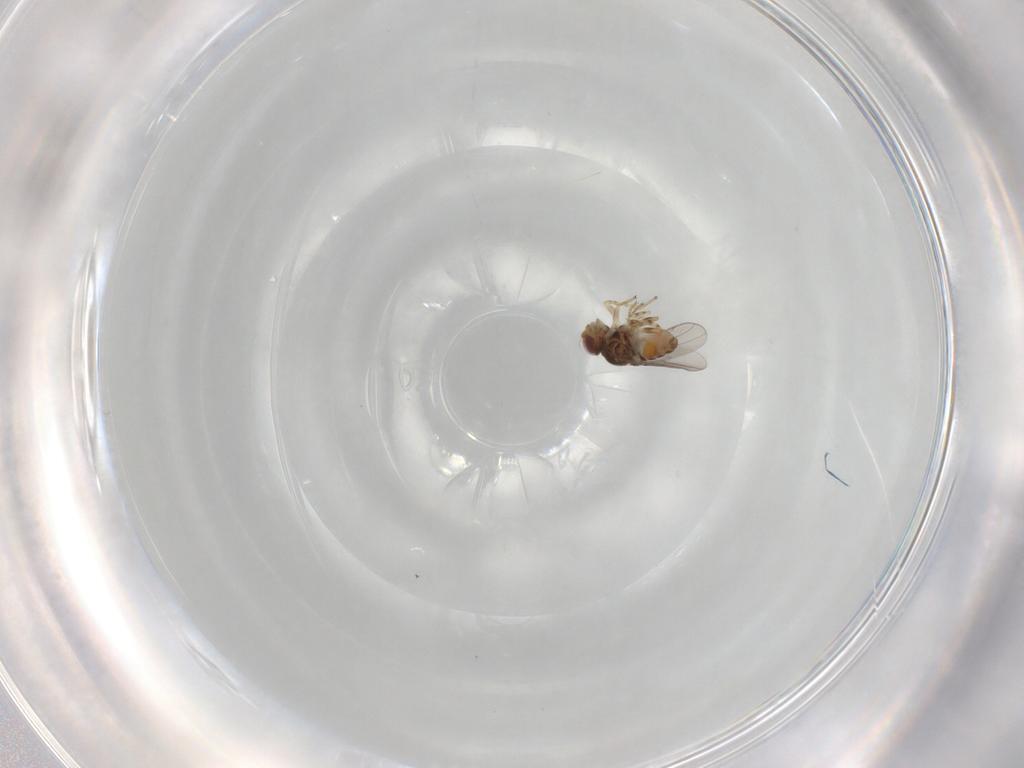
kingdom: Animalia
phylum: Arthropoda
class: Insecta
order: Diptera
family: Chloropidae
